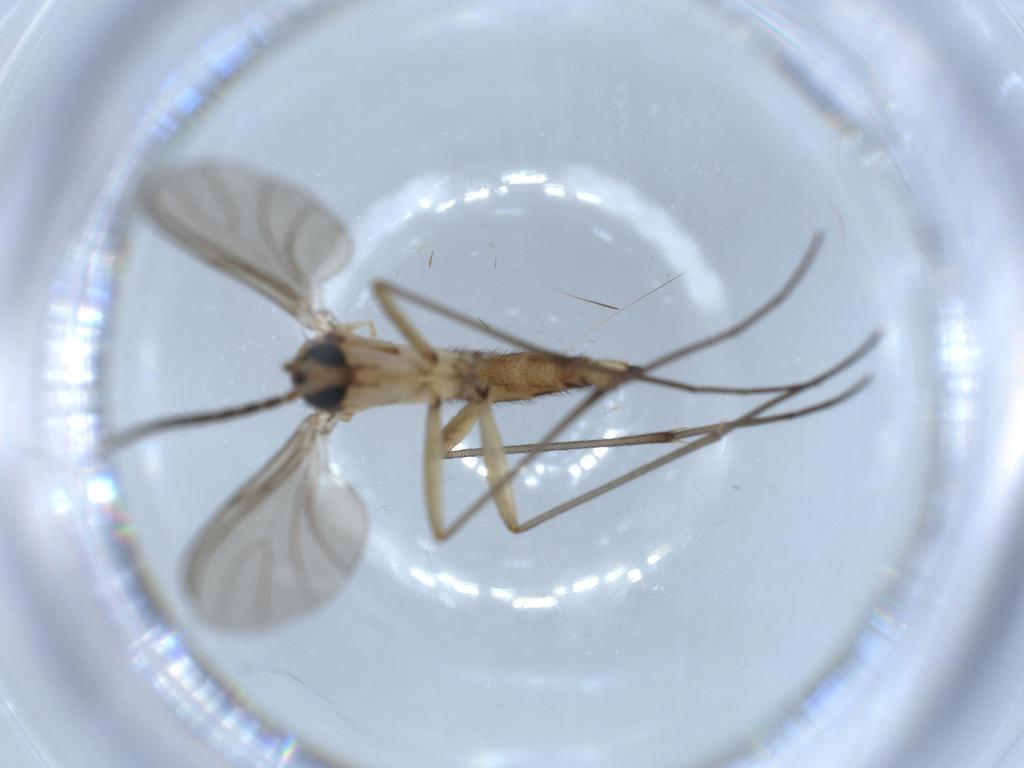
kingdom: Animalia
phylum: Arthropoda
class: Insecta
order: Diptera
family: Sciaridae
